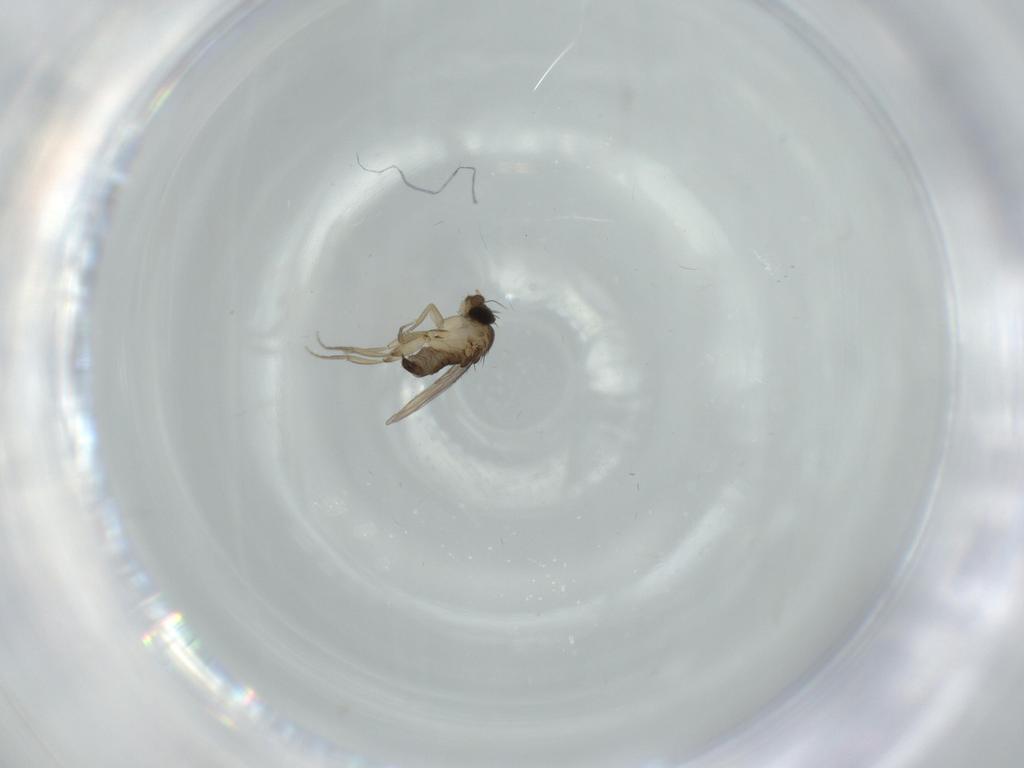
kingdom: Animalia
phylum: Arthropoda
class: Insecta
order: Diptera
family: Phoridae
